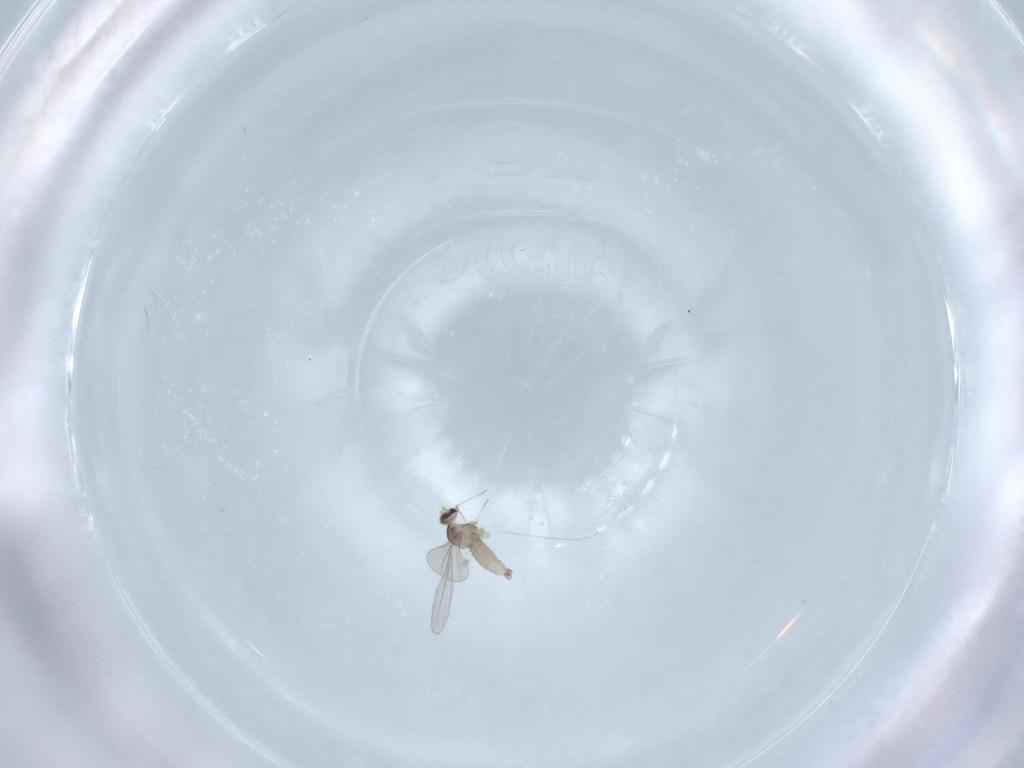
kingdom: Animalia
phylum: Arthropoda
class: Insecta
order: Diptera
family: Cecidomyiidae
